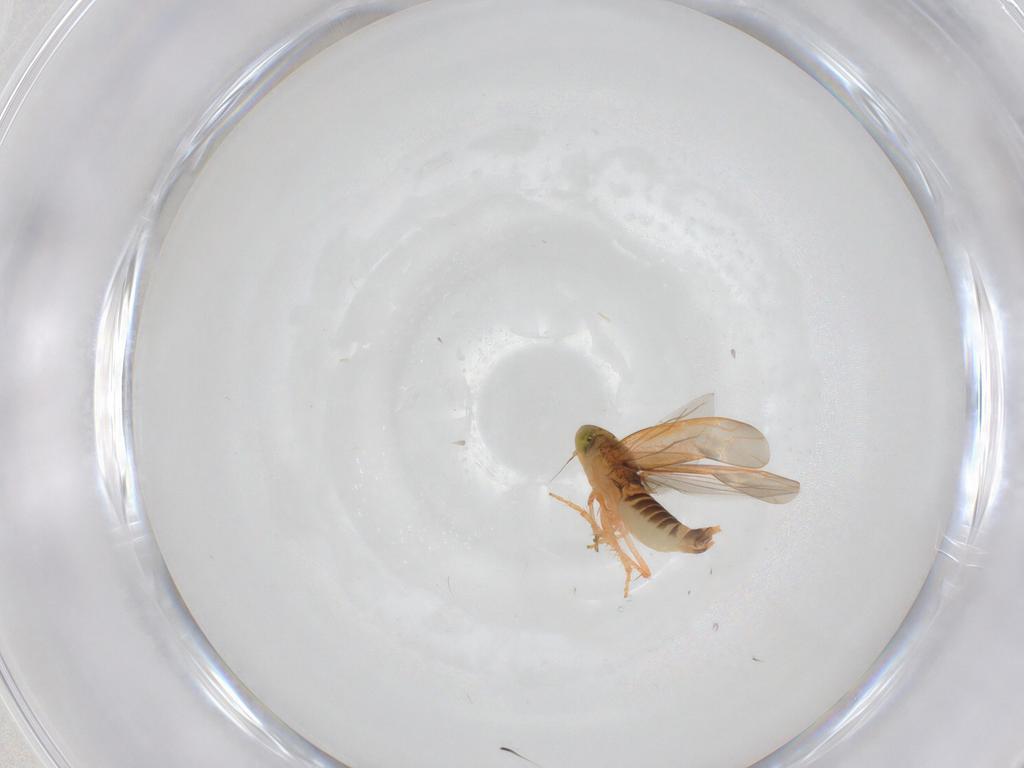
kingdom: Animalia
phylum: Arthropoda
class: Insecta
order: Hemiptera
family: Cicadellidae
